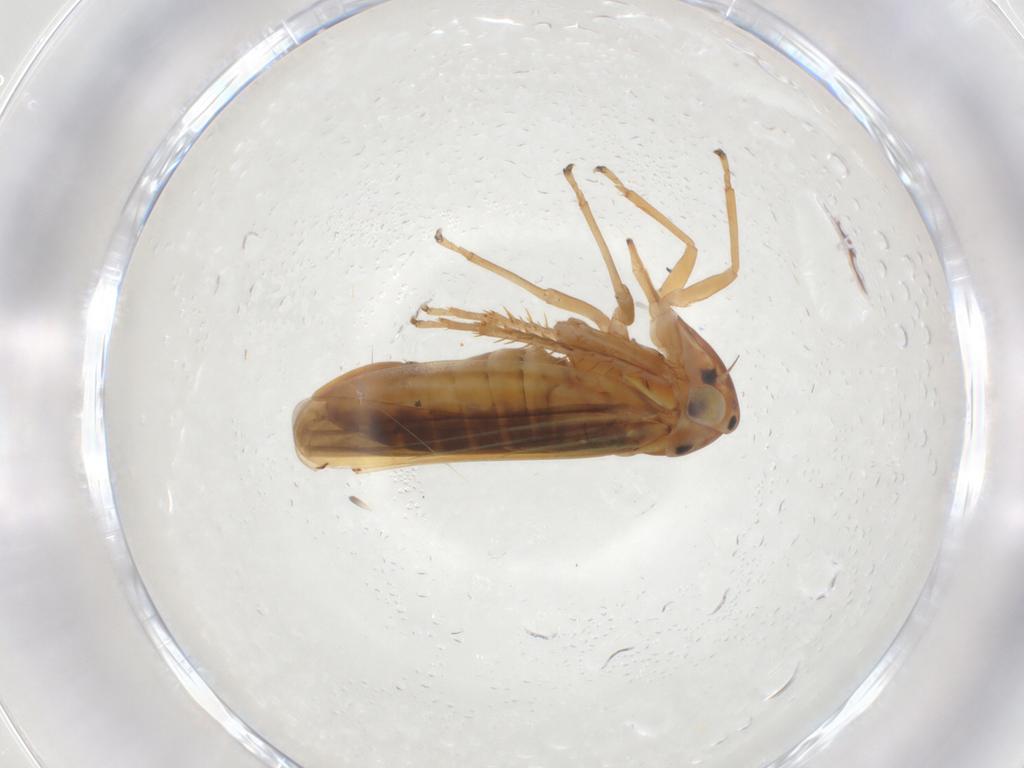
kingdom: Animalia
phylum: Arthropoda
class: Insecta
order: Hemiptera
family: Cicadellidae
